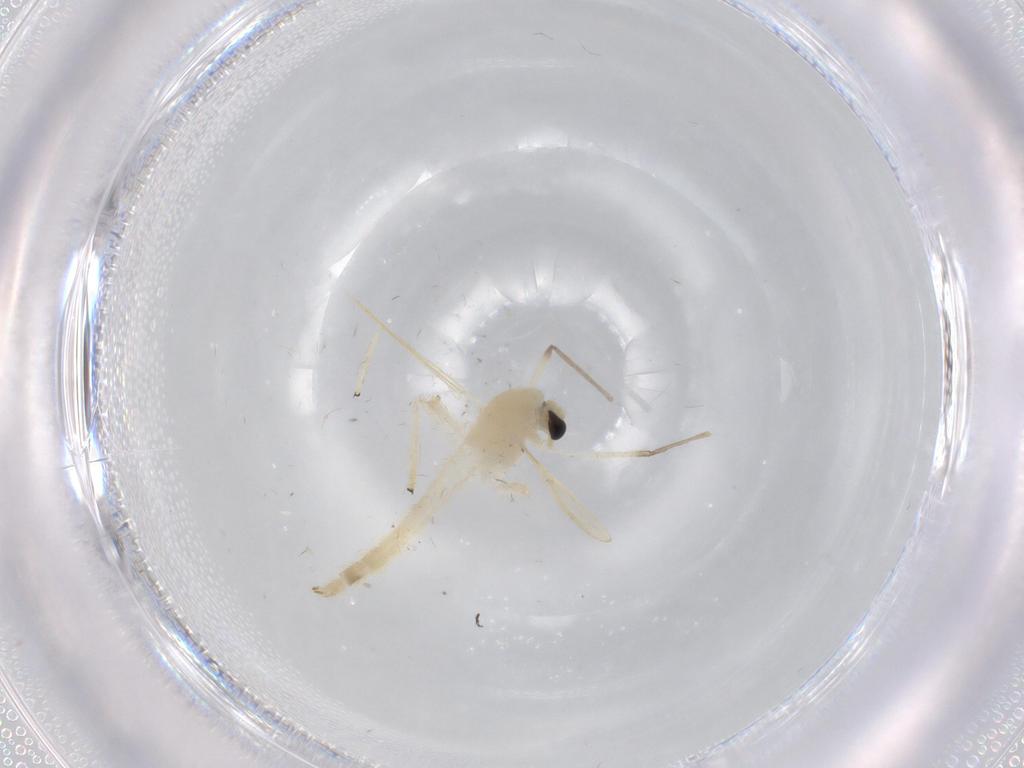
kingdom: Animalia
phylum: Arthropoda
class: Insecta
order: Diptera
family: Chironomidae
